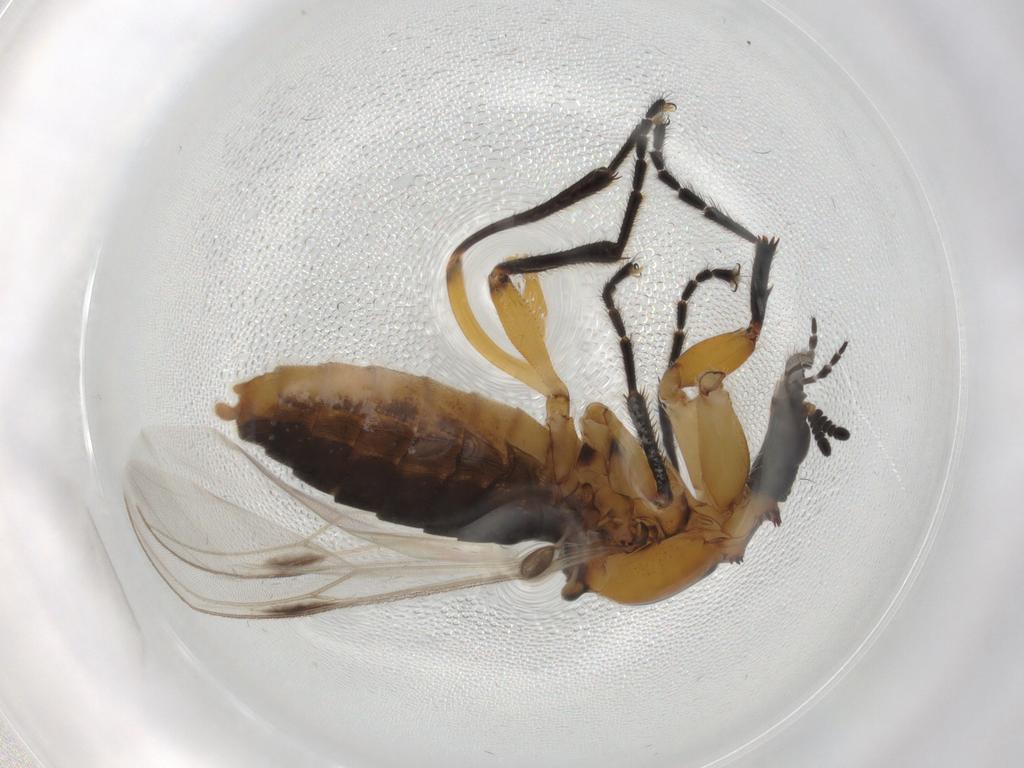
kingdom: Animalia
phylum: Arthropoda
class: Insecta
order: Diptera
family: Bibionidae
